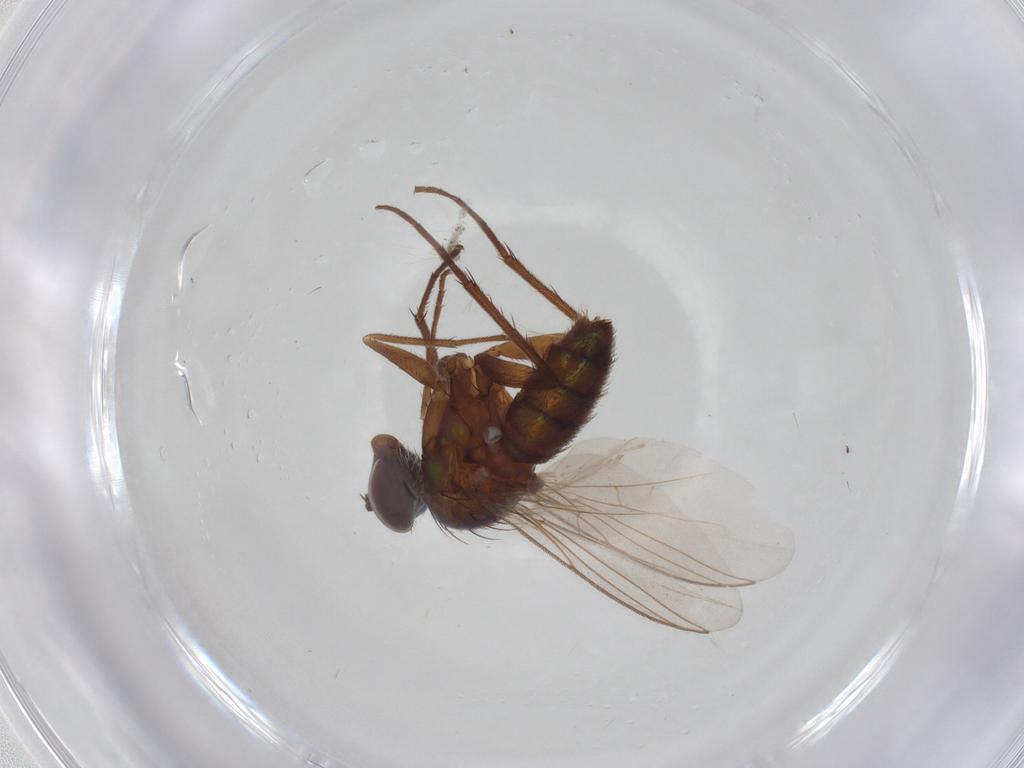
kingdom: Animalia
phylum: Arthropoda
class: Insecta
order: Diptera
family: Dolichopodidae
